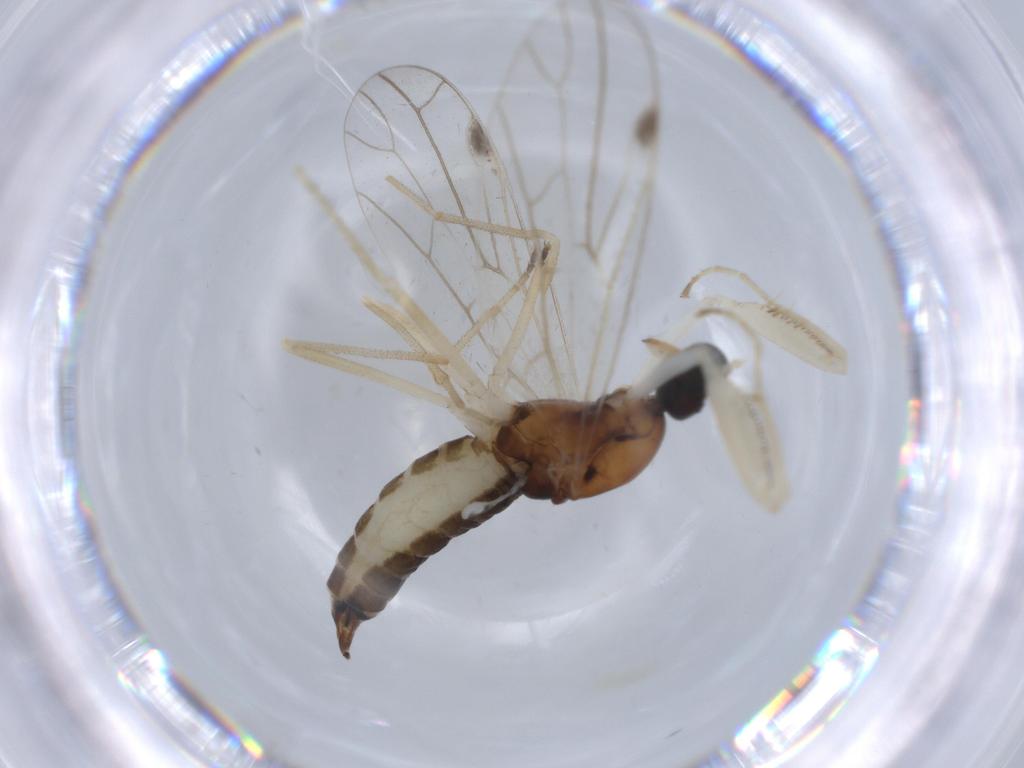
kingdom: Animalia
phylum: Arthropoda
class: Insecta
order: Diptera
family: Empididae
